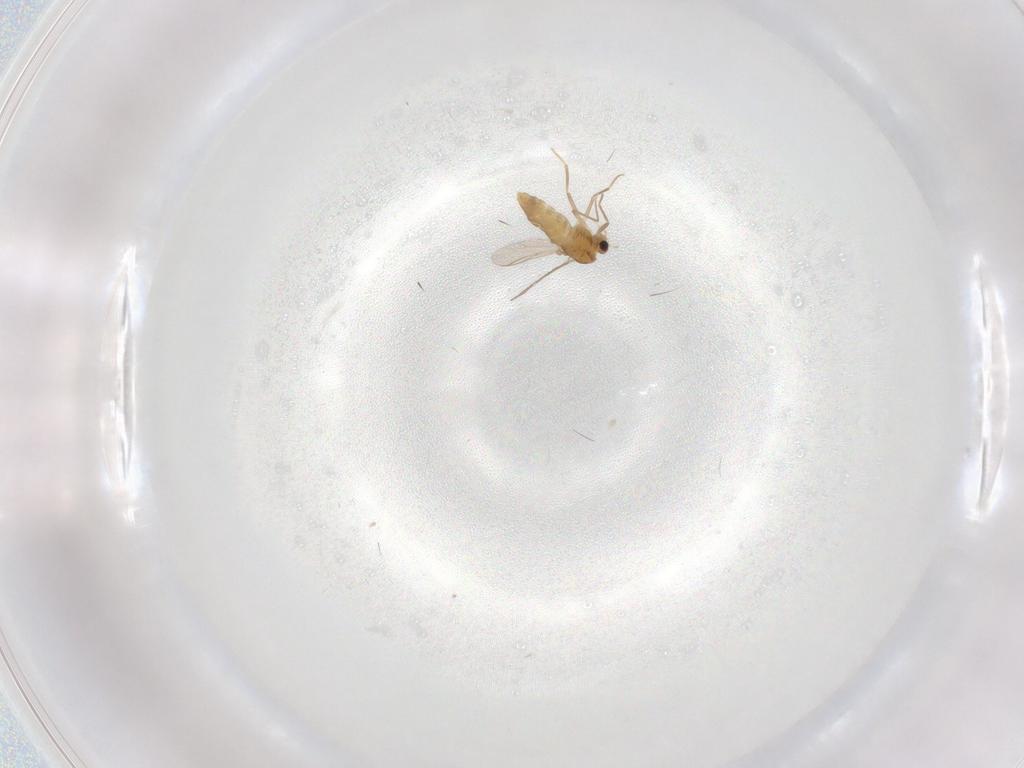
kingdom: Animalia
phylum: Arthropoda
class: Insecta
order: Diptera
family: Chironomidae
